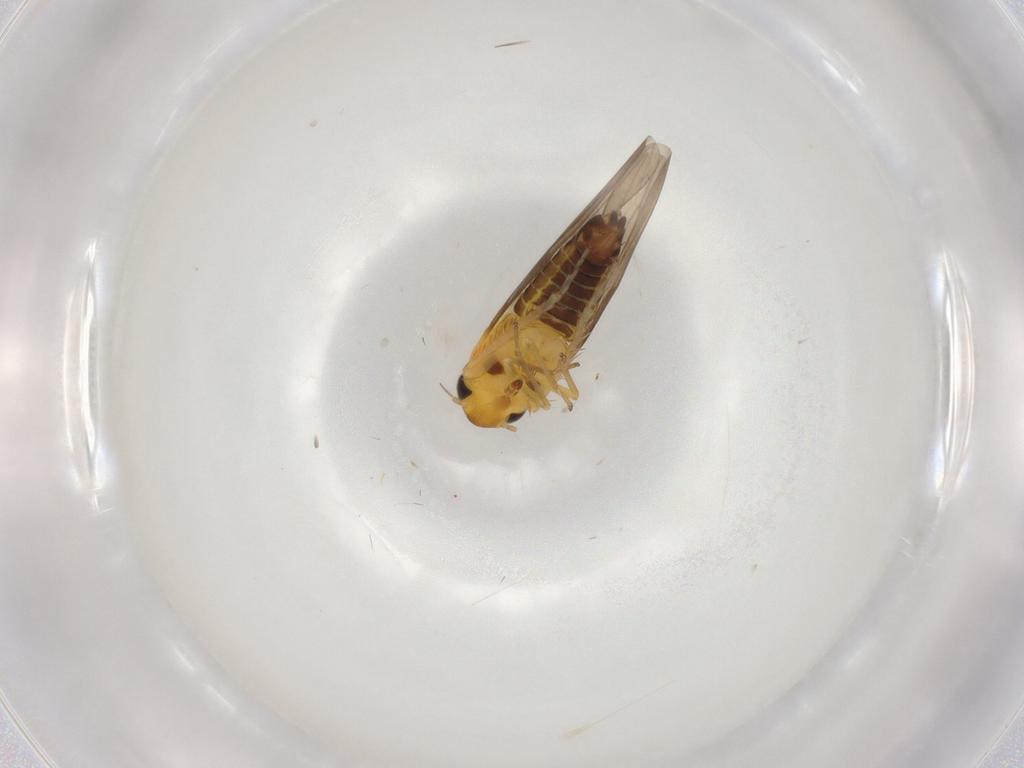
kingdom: Animalia
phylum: Arthropoda
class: Insecta
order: Hemiptera
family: Cicadellidae
